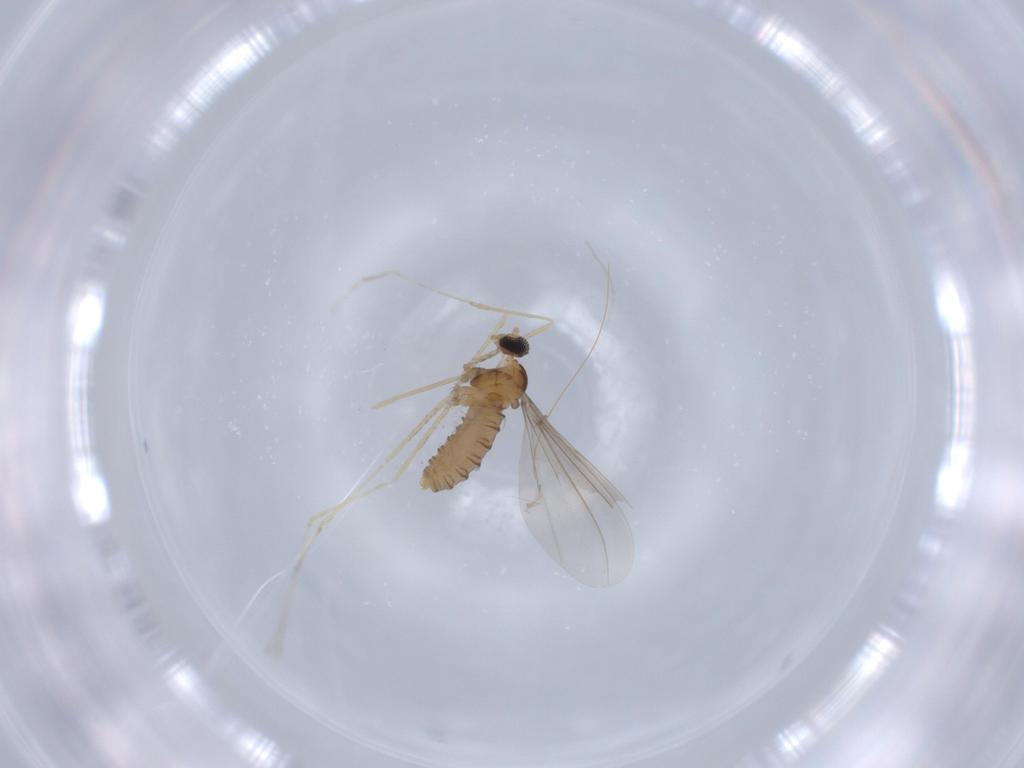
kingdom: Animalia
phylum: Arthropoda
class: Insecta
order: Diptera
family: Cecidomyiidae
